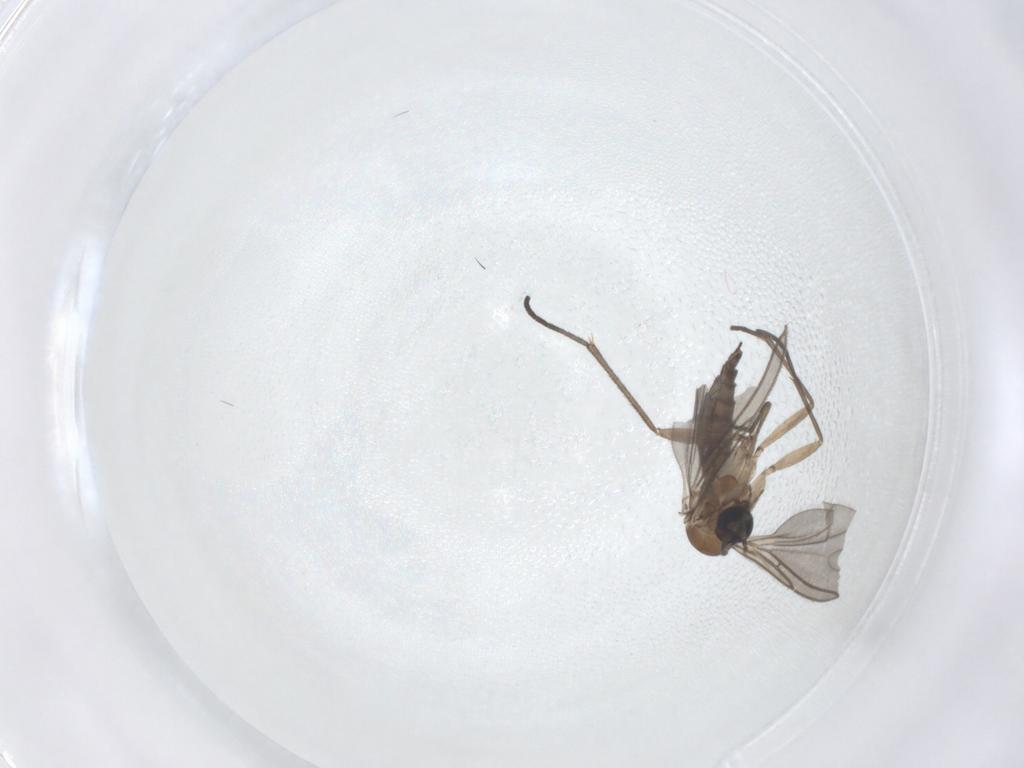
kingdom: Animalia
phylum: Arthropoda
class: Insecta
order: Diptera
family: Sciaridae
